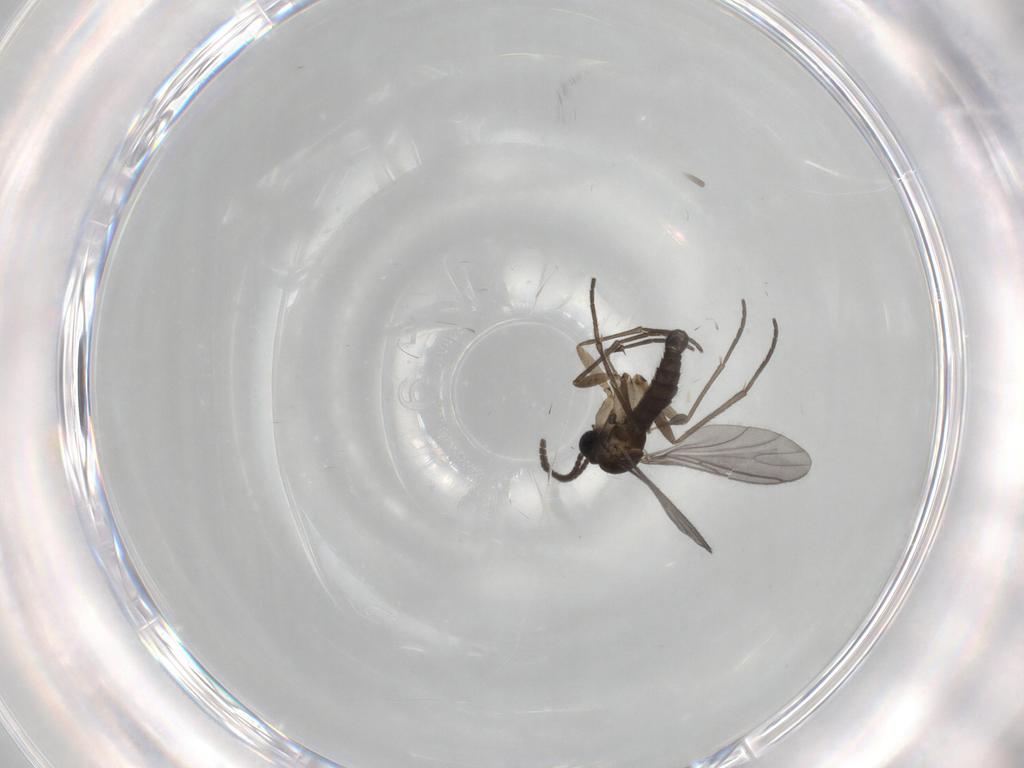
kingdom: Animalia
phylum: Arthropoda
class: Insecta
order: Diptera
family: Sciaridae
